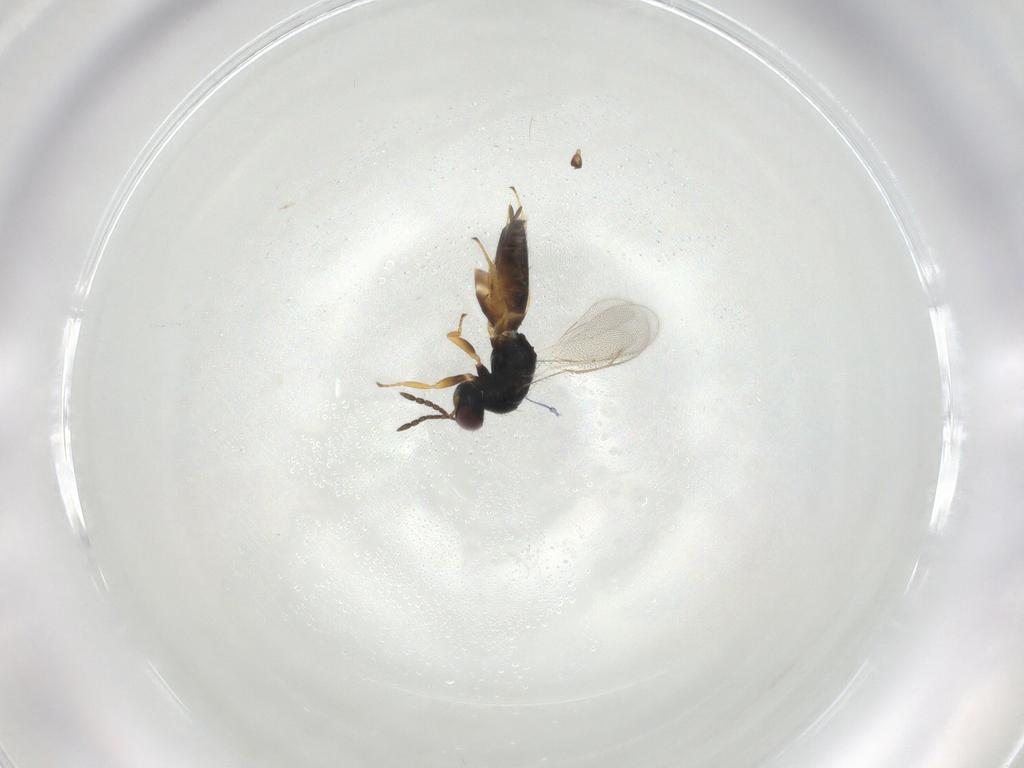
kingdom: Animalia
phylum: Arthropoda
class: Insecta
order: Hymenoptera
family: Eulophidae
